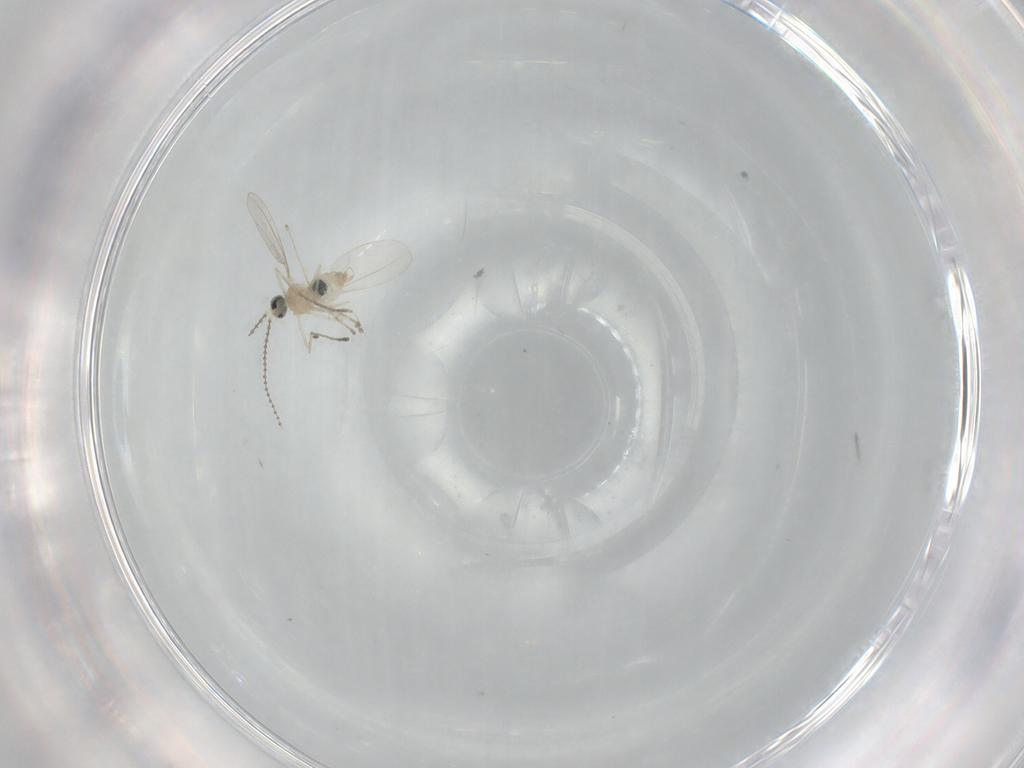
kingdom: Animalia
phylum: Arthropoda
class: Insecta
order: Diptera
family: Cecidomyiidae
